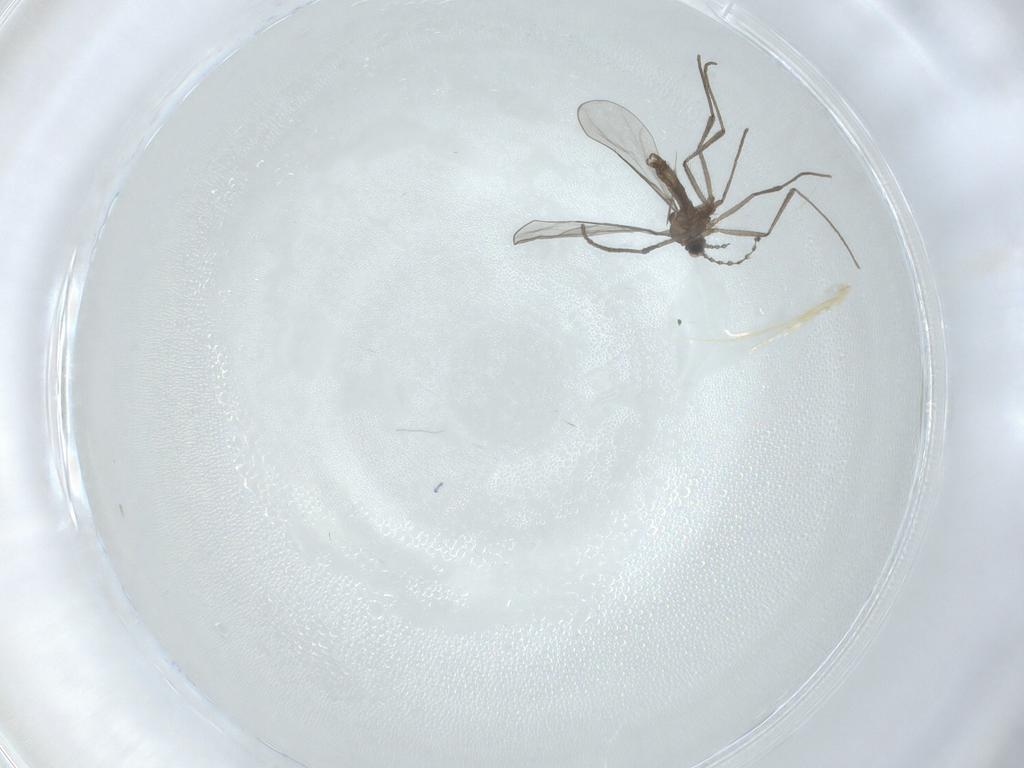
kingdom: Animalia
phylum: Arthropoda
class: Insecta
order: Diptera
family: Cecidomyiidae
